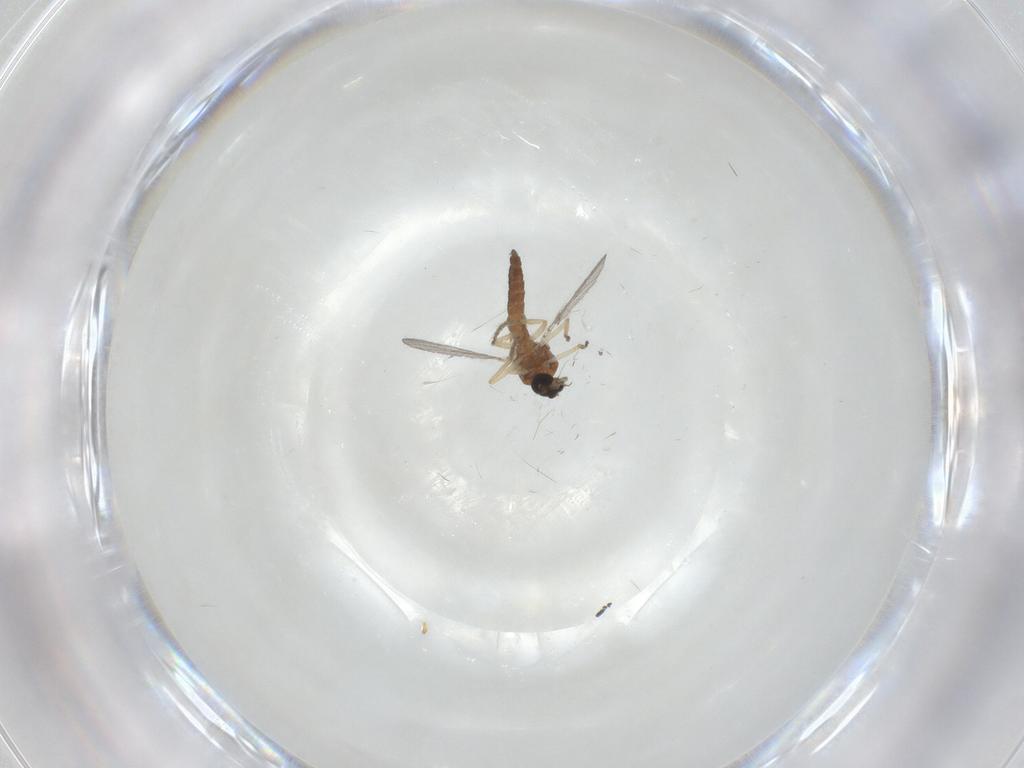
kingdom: Animalia
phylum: Arthropoda
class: Insecta
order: Diptera
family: Ceratopogonidae
